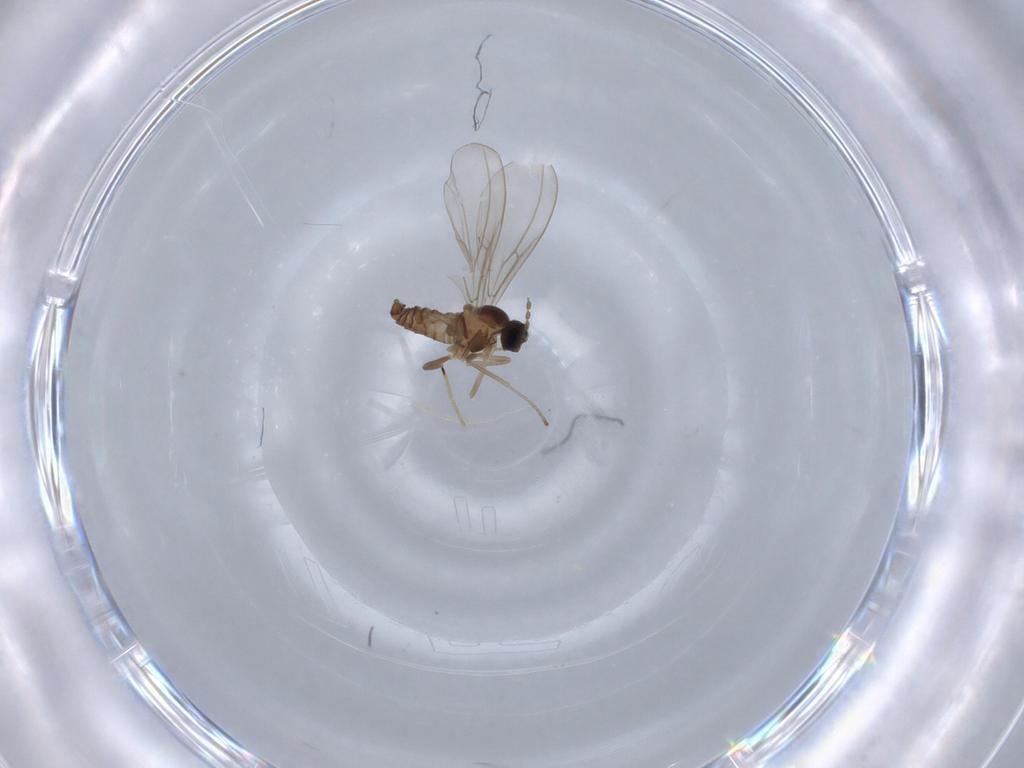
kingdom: Animalia
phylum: Arthropoda
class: Insecta
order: Diptera
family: Cecidomyiidae
